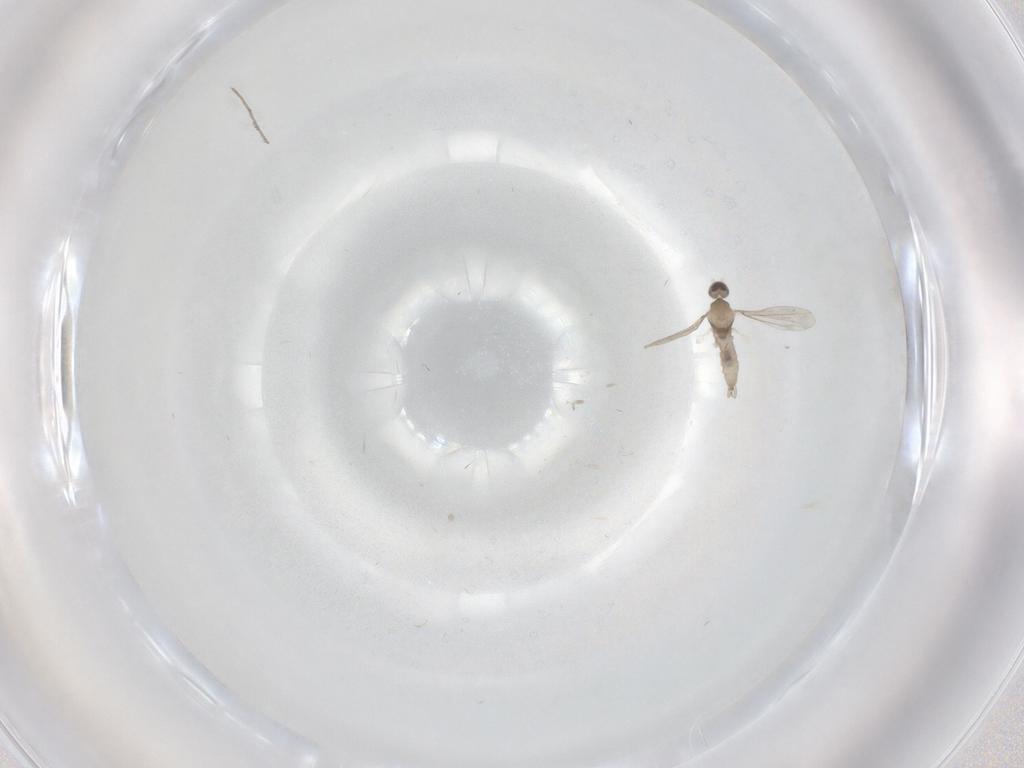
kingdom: Animalia
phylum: Arthropoda
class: Insecta
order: Diptera
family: Cecidomyiidae
